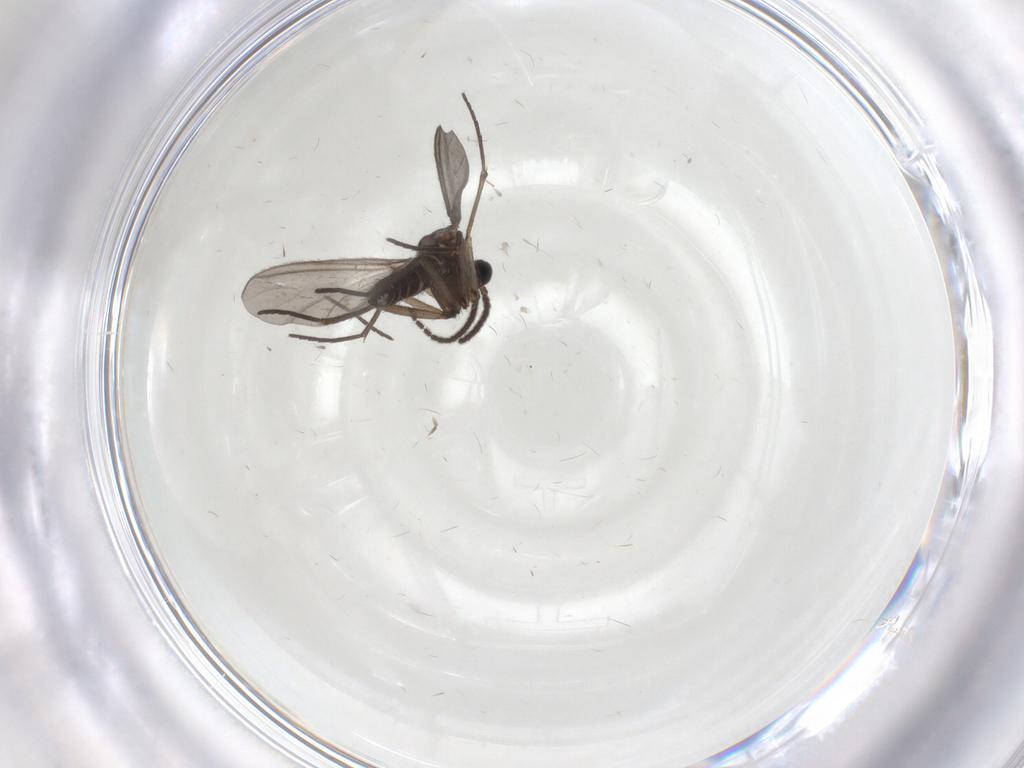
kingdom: Animalia
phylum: Arthropoda
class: Insecta
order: Diptera
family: Sciaridae
